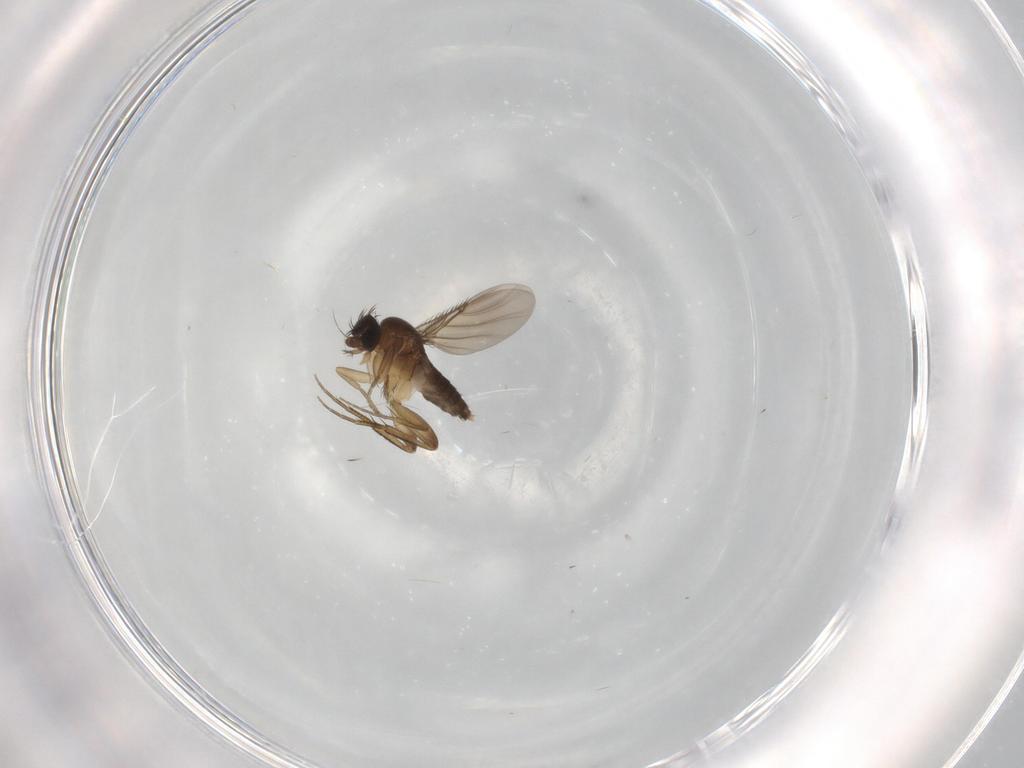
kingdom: Animalia
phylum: Arthropoda
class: Insecta
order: Diptera
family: Phoridae
